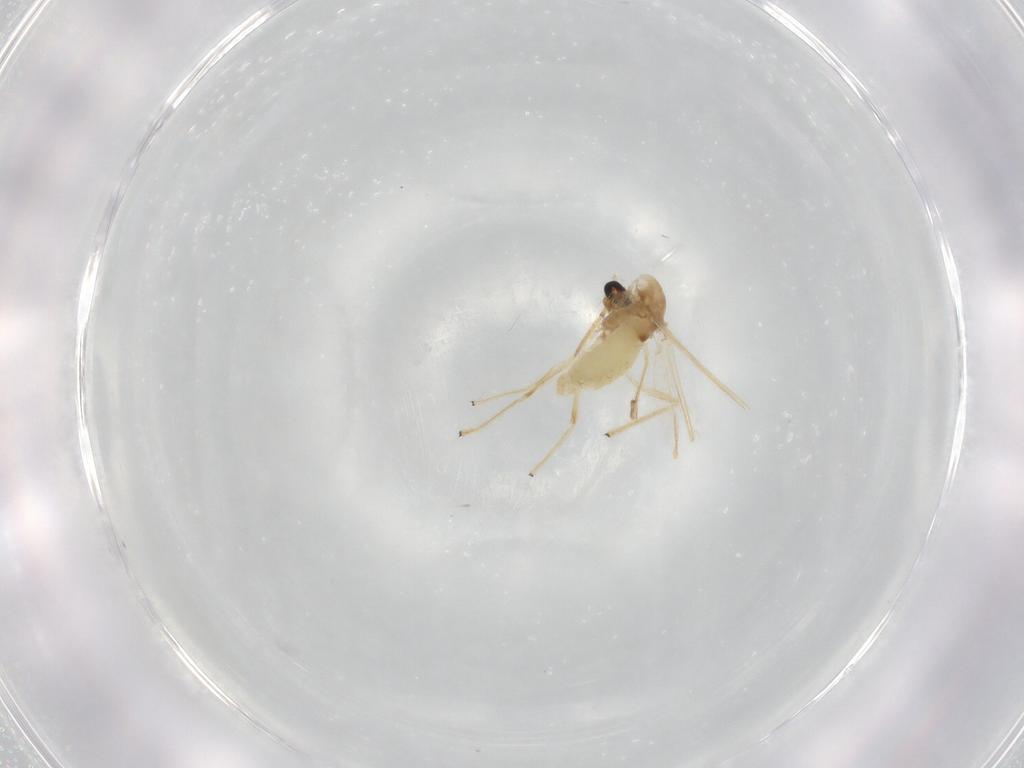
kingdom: Animalia
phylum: Arthropoda
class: Insecta
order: Diptera
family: Chironomidae
